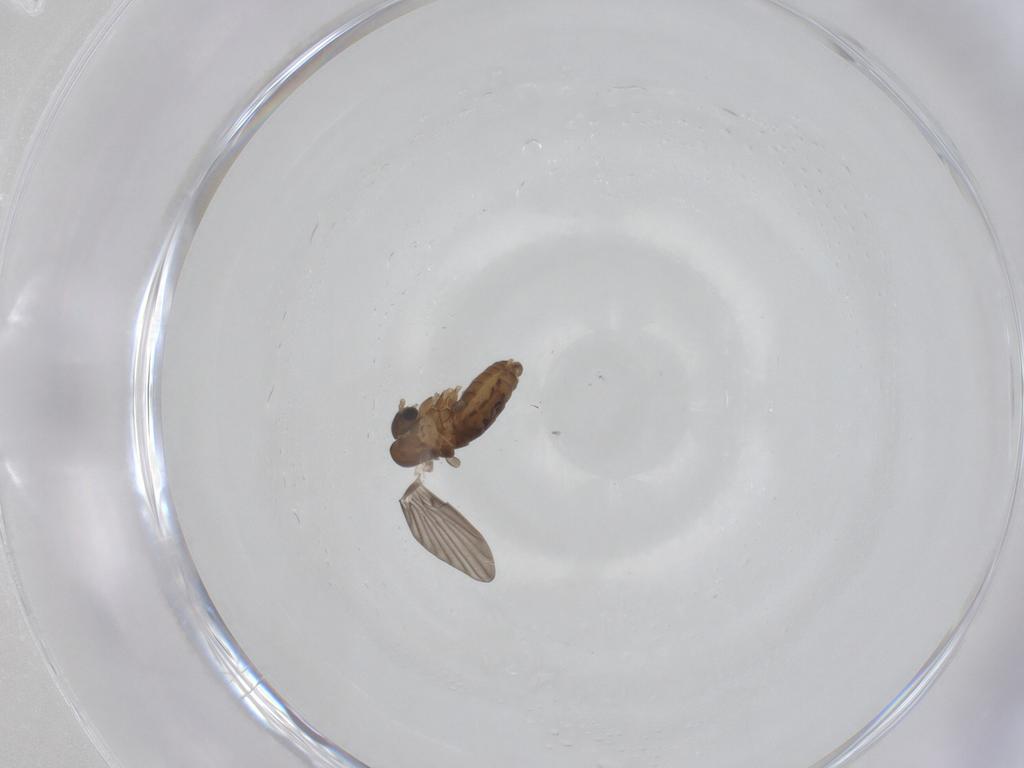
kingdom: Animalia
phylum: Arthropoda
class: Insecta
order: Diptera
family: Psychodidae
